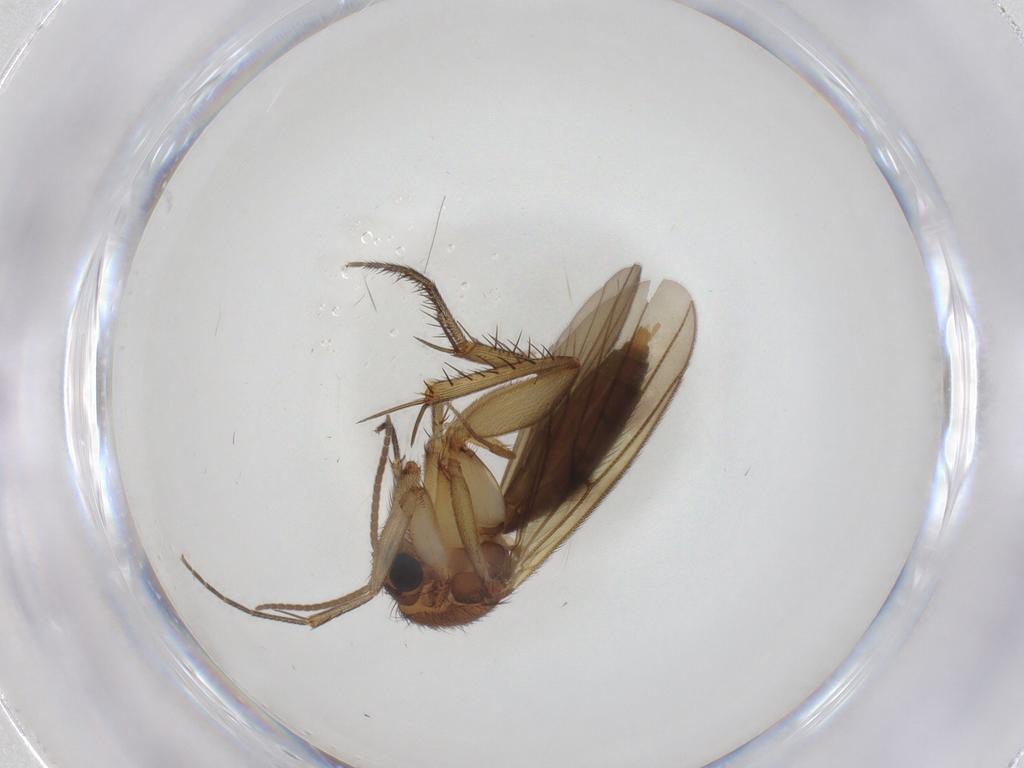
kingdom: Animalia
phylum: Arthropoda
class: Insecta
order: Diptera
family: Mycetophilidae
